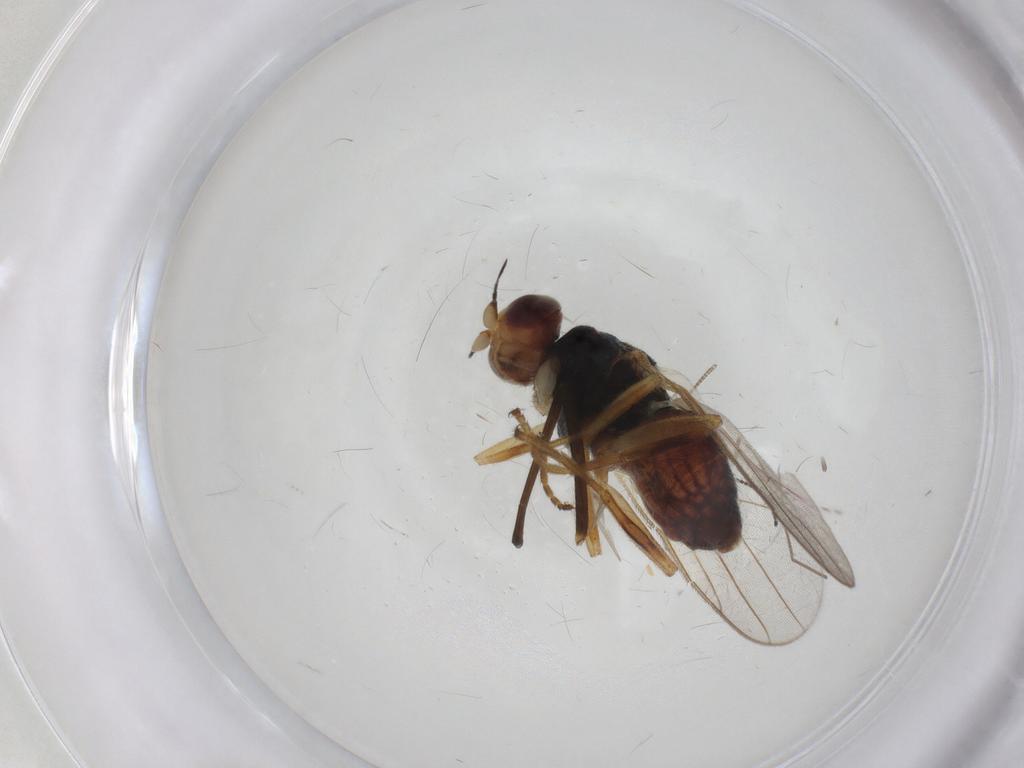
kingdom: Animalia
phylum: Arthropoda
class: Insecta
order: Diptera
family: Chloropidae
